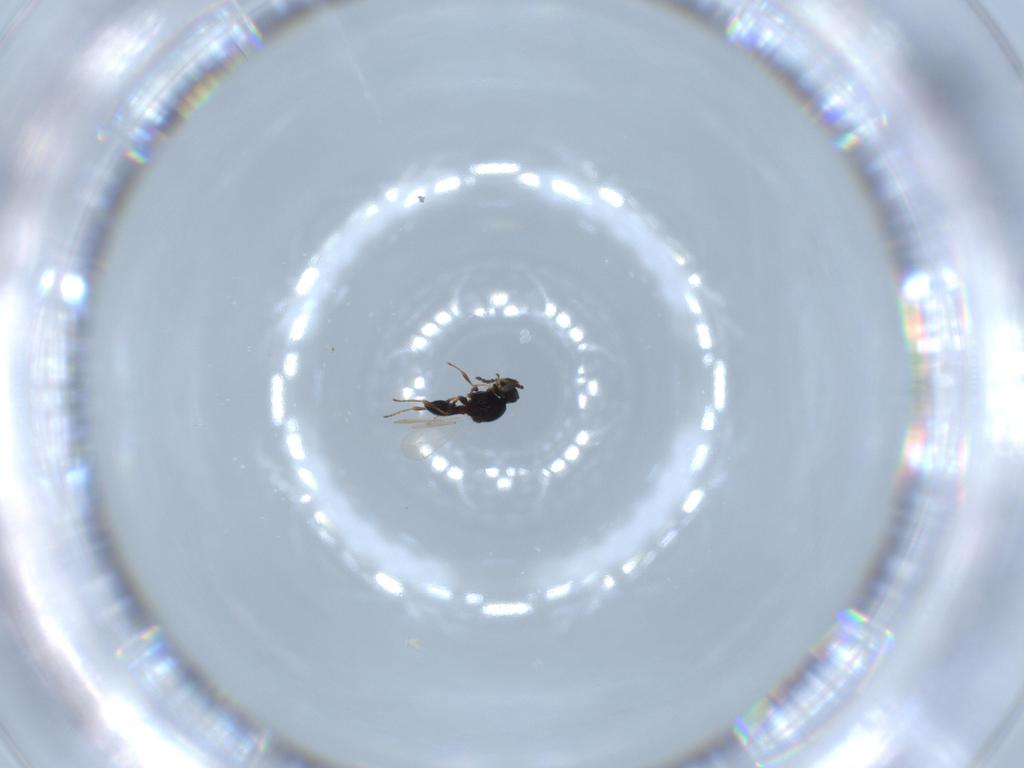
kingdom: Animalia
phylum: Arthropoda
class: Insecta
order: Hymenoptera
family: Platygastridae
